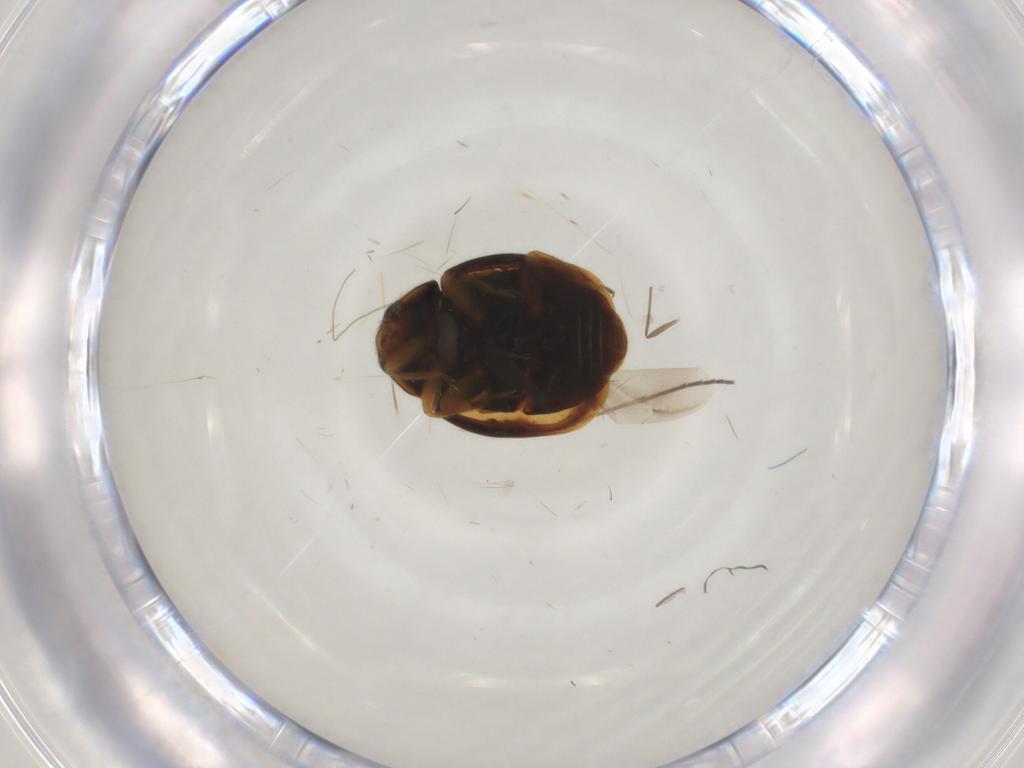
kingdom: Animalia
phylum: Arthropoda
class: Insecta
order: Coleoptera
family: Coccinellidae
